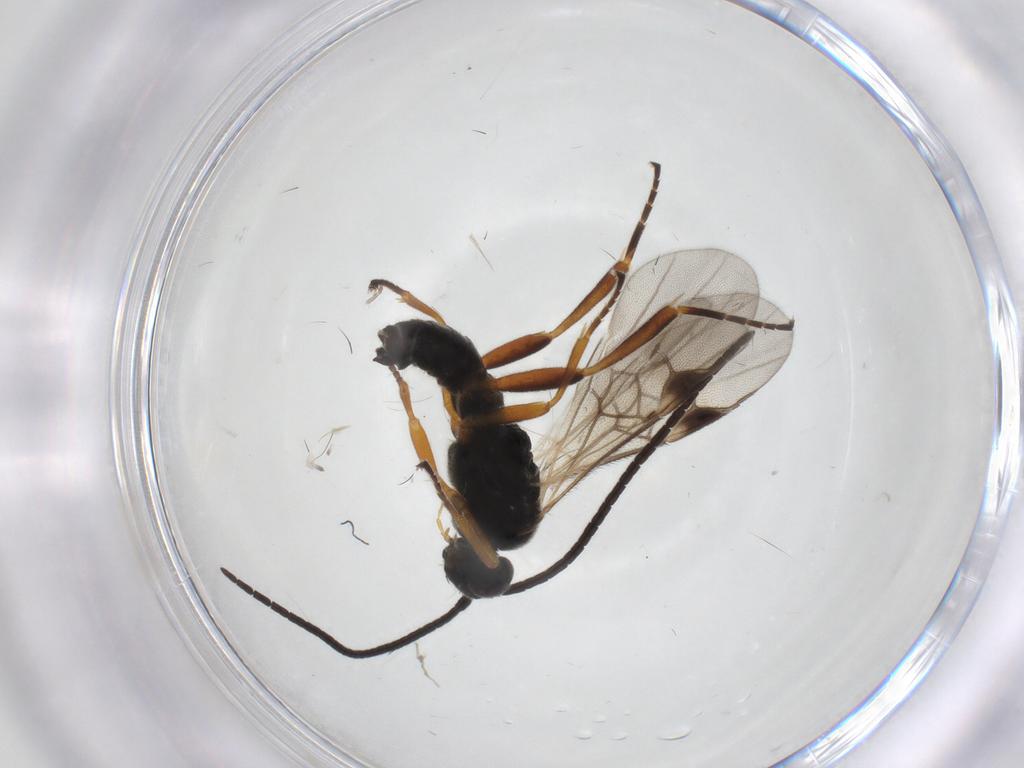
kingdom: Animalia
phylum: Arthropoda
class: Insecta
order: Hymenoptera
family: Braconidae
